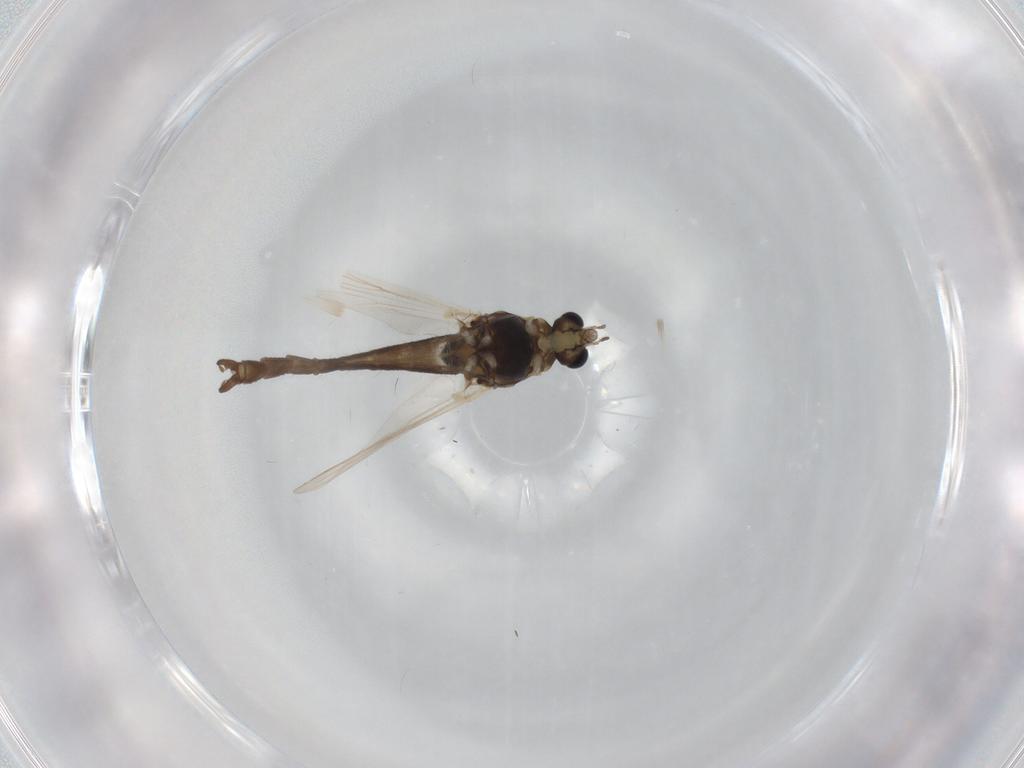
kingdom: Animalia
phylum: Arthropoda
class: Insecta
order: Diptera
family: Chironomidae
